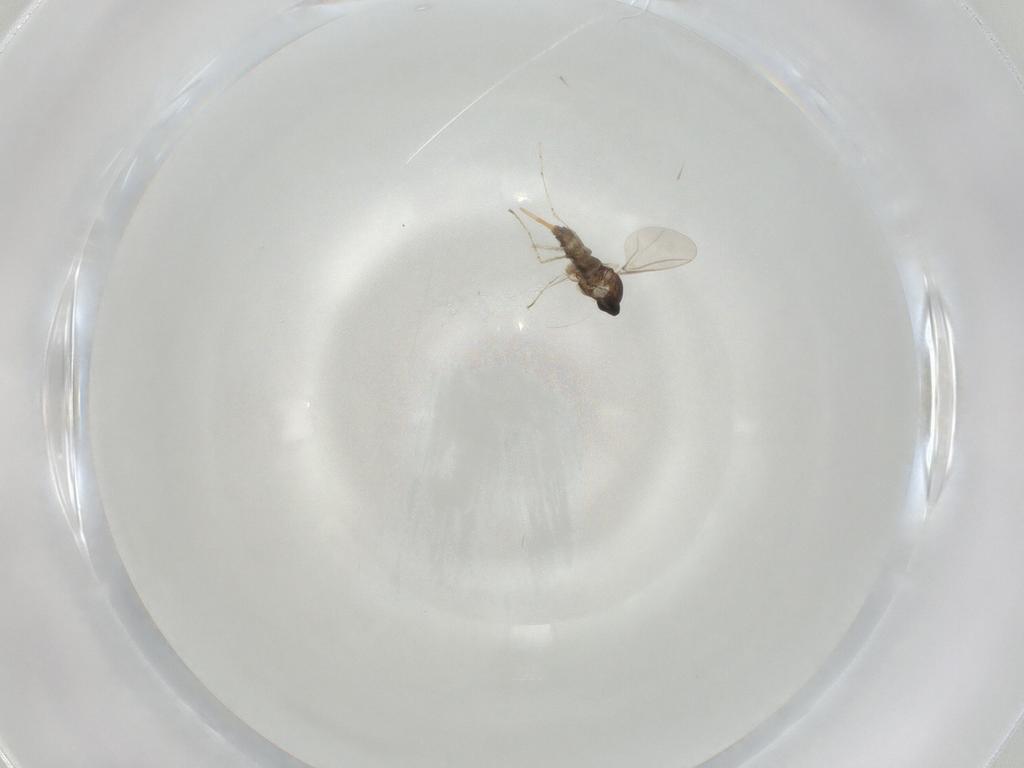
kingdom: Animalia
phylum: Arthropoda
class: Insecta
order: Diptera
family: Cecidomyiidae
